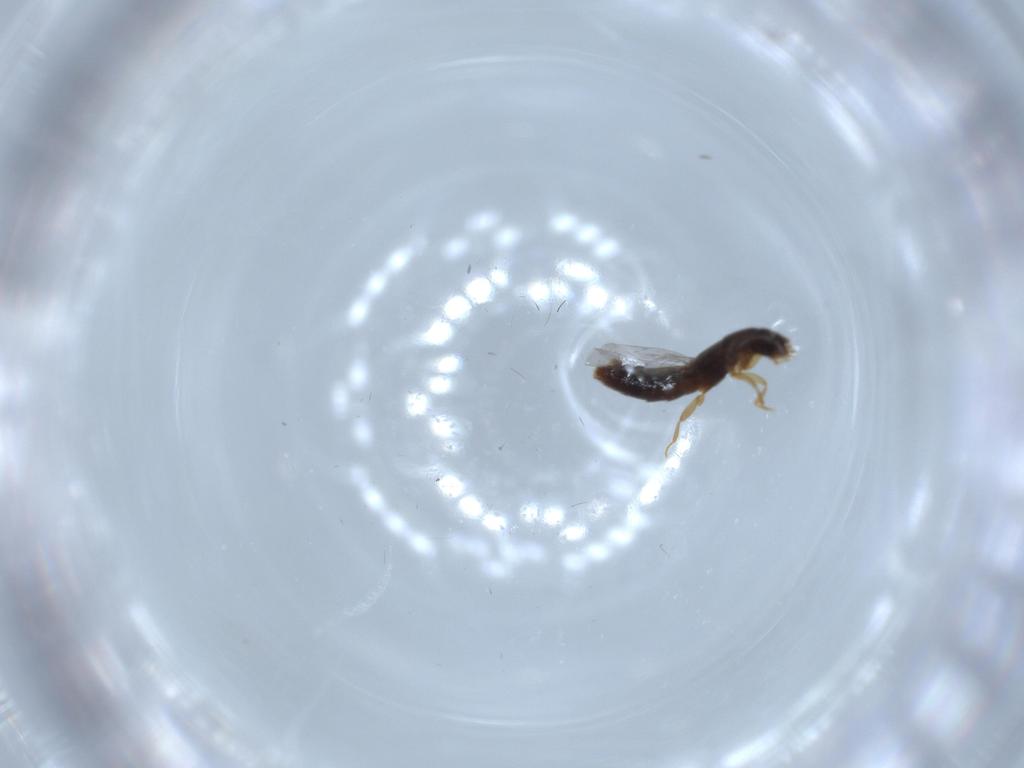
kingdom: Animalia
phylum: Arthropoda
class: Insecta
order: Coleoptera
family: Staphylinidae
